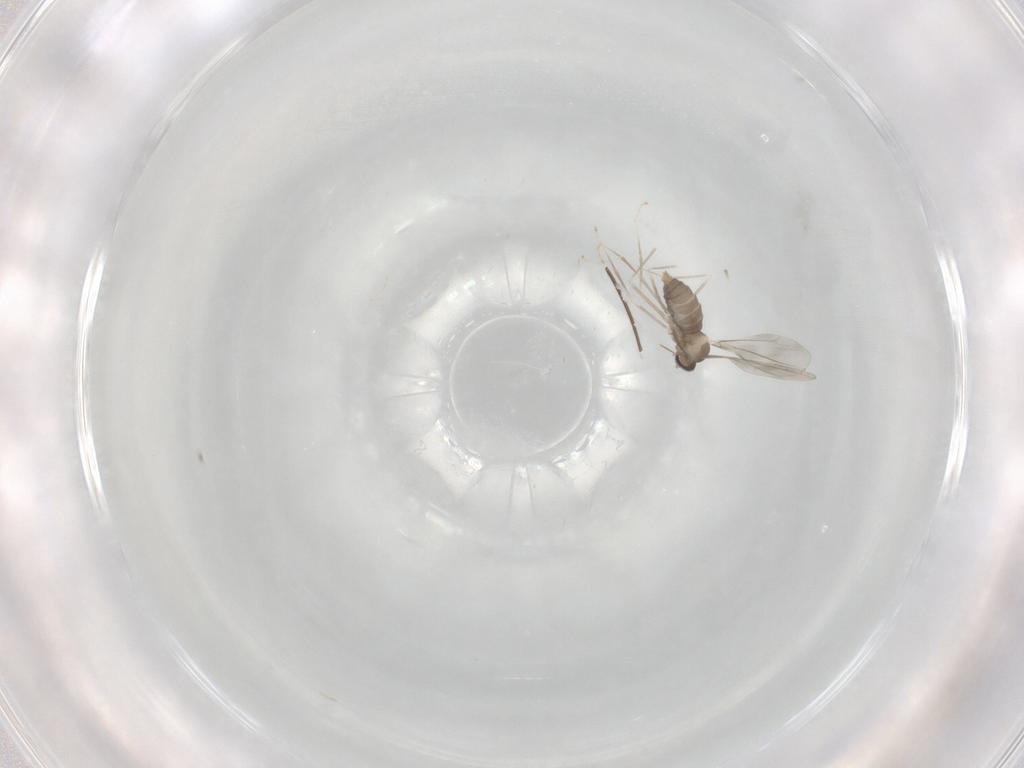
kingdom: Animalia
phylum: Arthropoda
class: Insecta
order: Diptera
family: Cecidomyiidae
